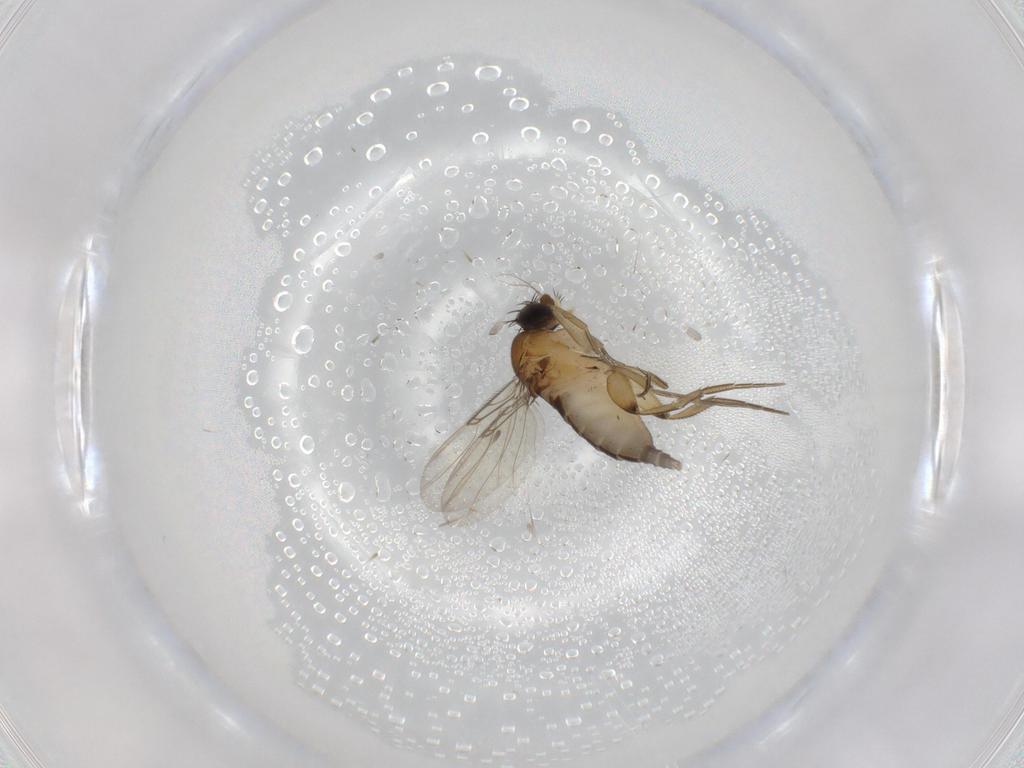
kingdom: Animalia
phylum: Arthropoda
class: Insecta
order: Diptera
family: Phoridae
